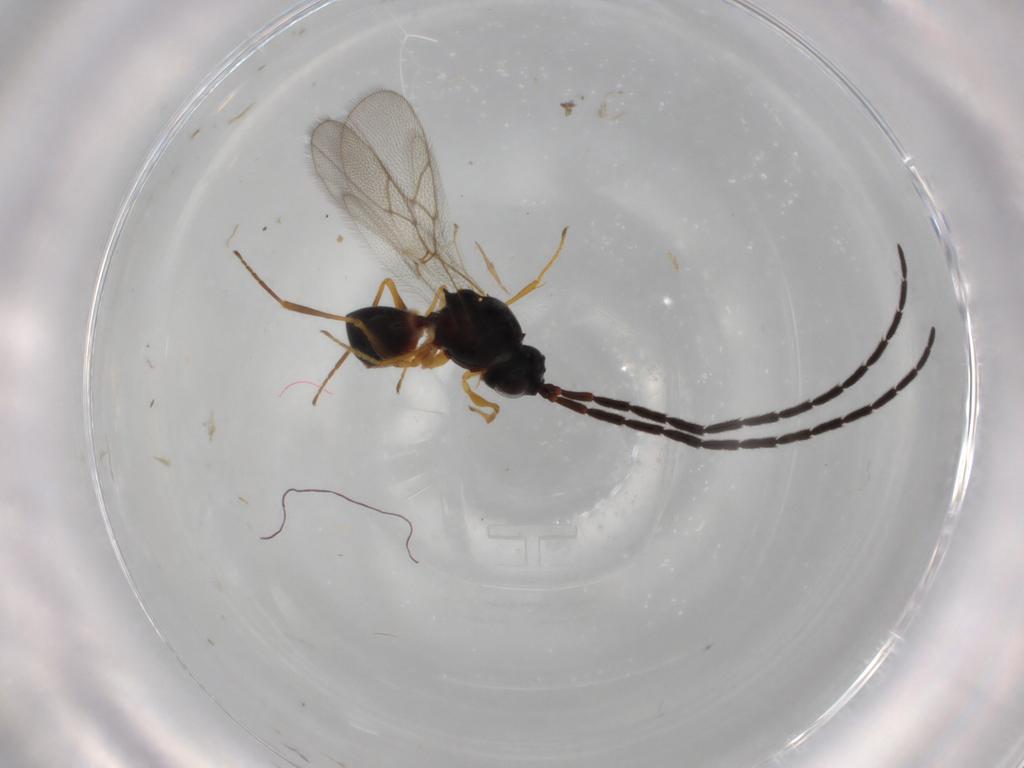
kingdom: Animalia
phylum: Arthropoda
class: Insecta
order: Hymenoptera
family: Figitidae
